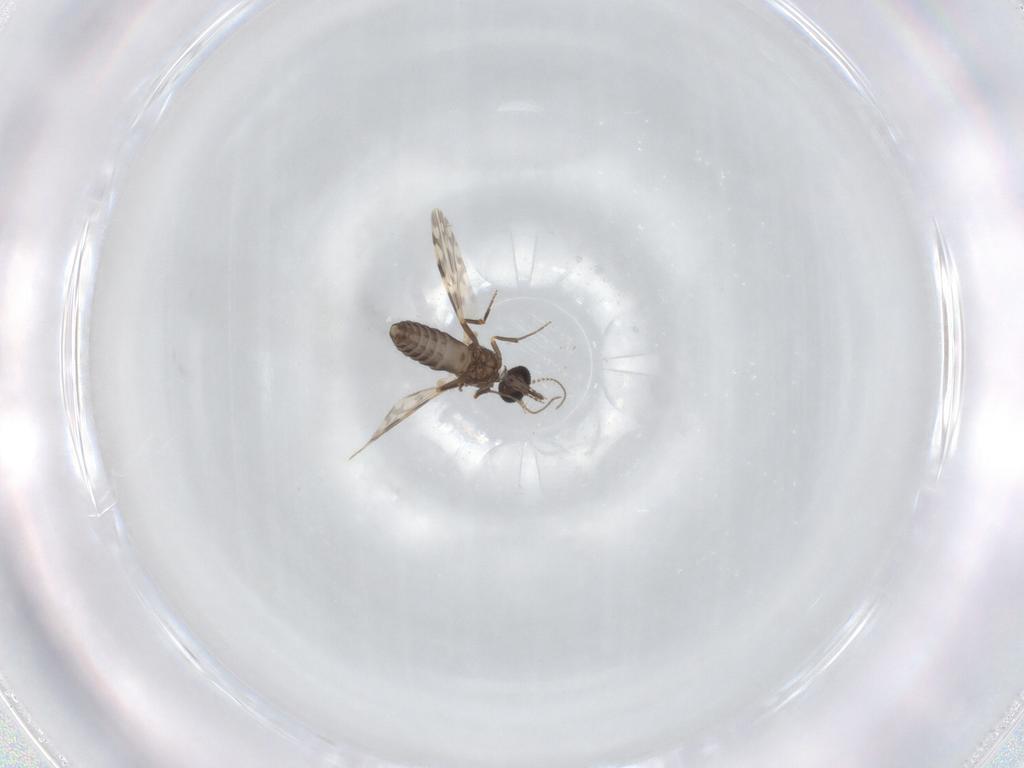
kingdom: Animalia
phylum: Arthropoda
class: Insecta
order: Diptera
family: Ceratopogonidae
